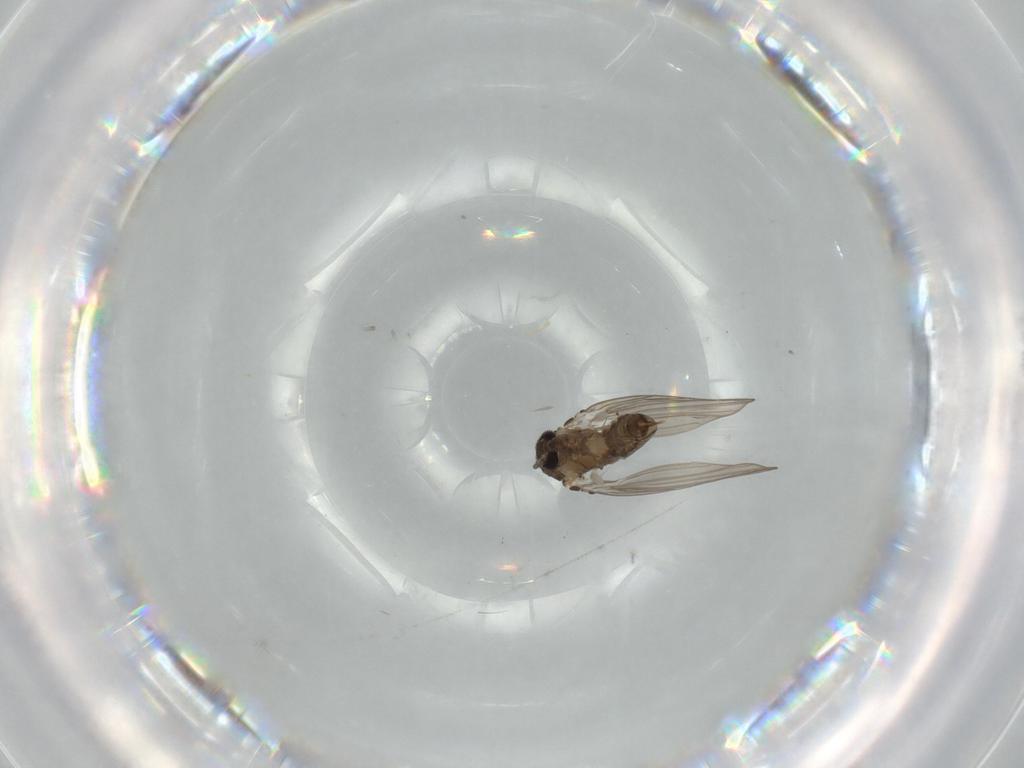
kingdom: Animalia
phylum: Arthropoda
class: Insecta
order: Diptera
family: Psychodidae
